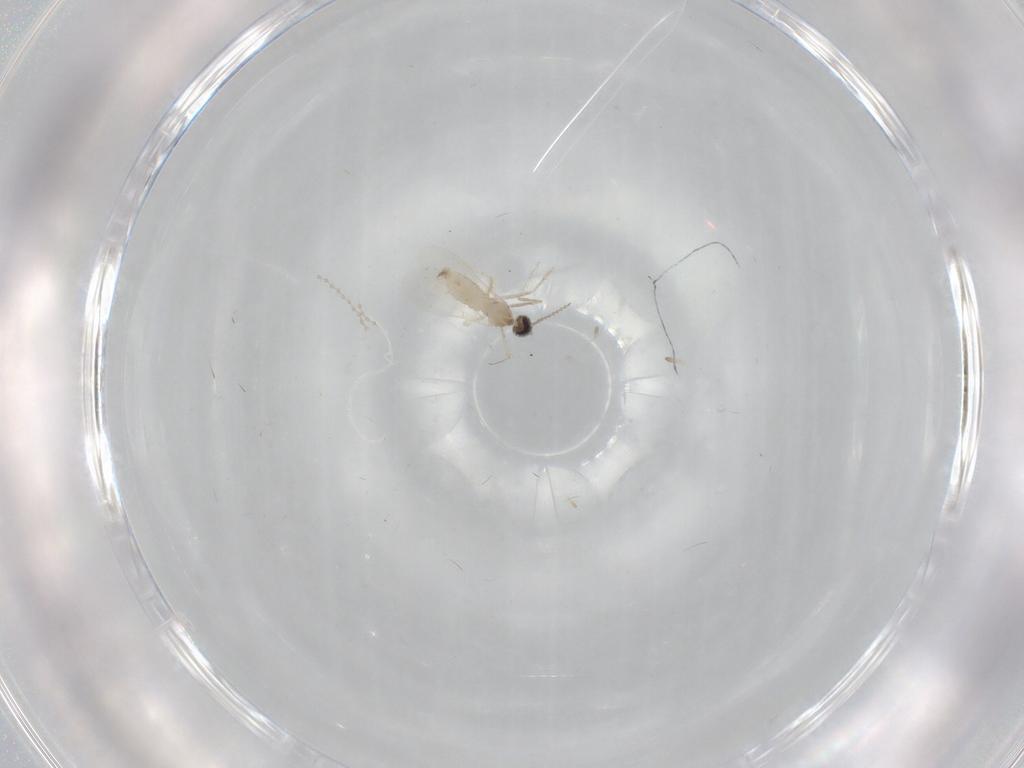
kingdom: Animalia
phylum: Arthropoda
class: Insecta
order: Diptera
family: Cecidomyiidae
